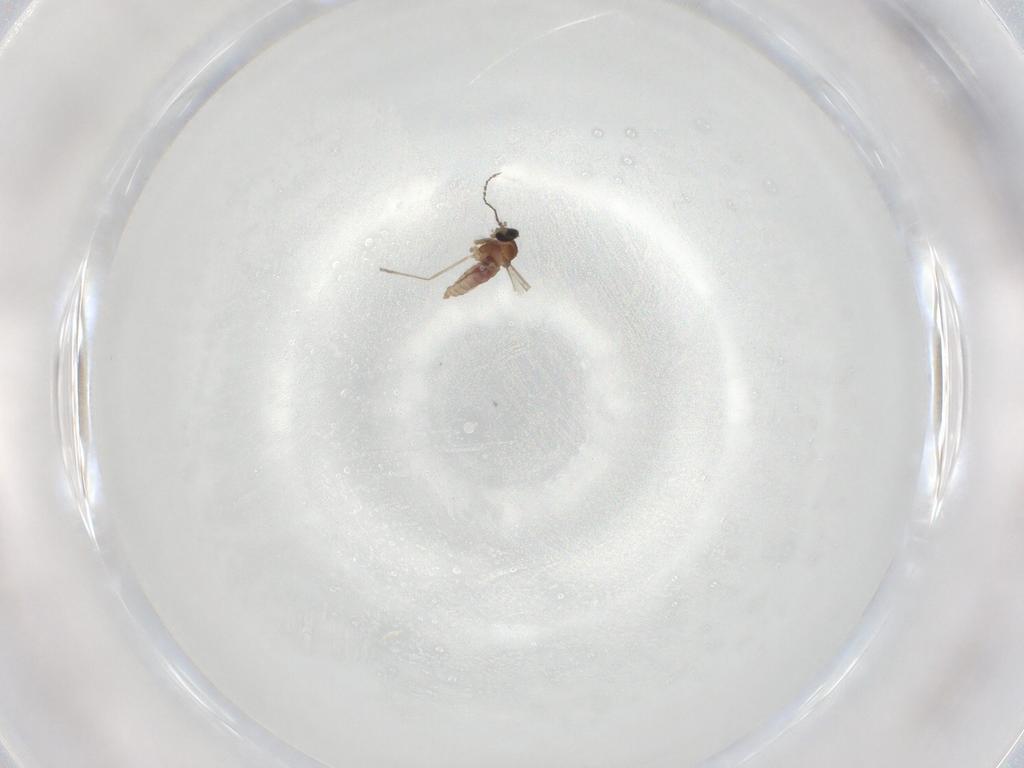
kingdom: Animalia
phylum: Arthropoda
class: Insecta
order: Diptera
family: Cecidomyiidae
